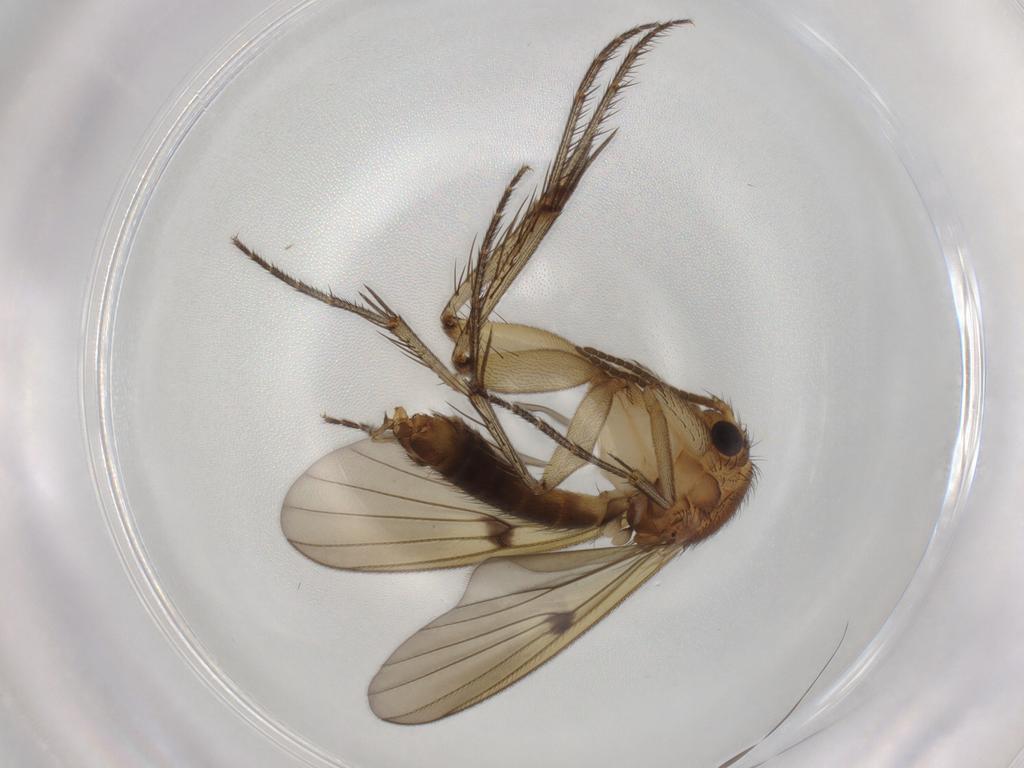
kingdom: Animalia
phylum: Arthropoda
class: Insecta
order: Diptera
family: Mycetophilidae
